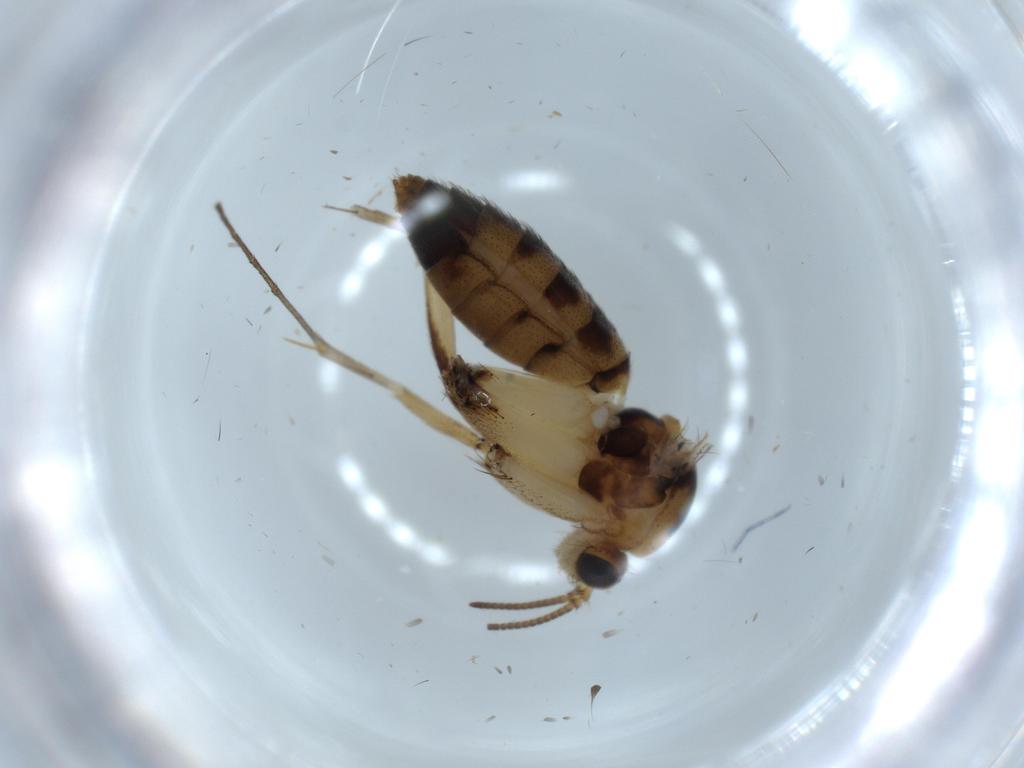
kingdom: Animalia
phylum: Arthropoda
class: Insecta
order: Diptera
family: Mycetophilidae
